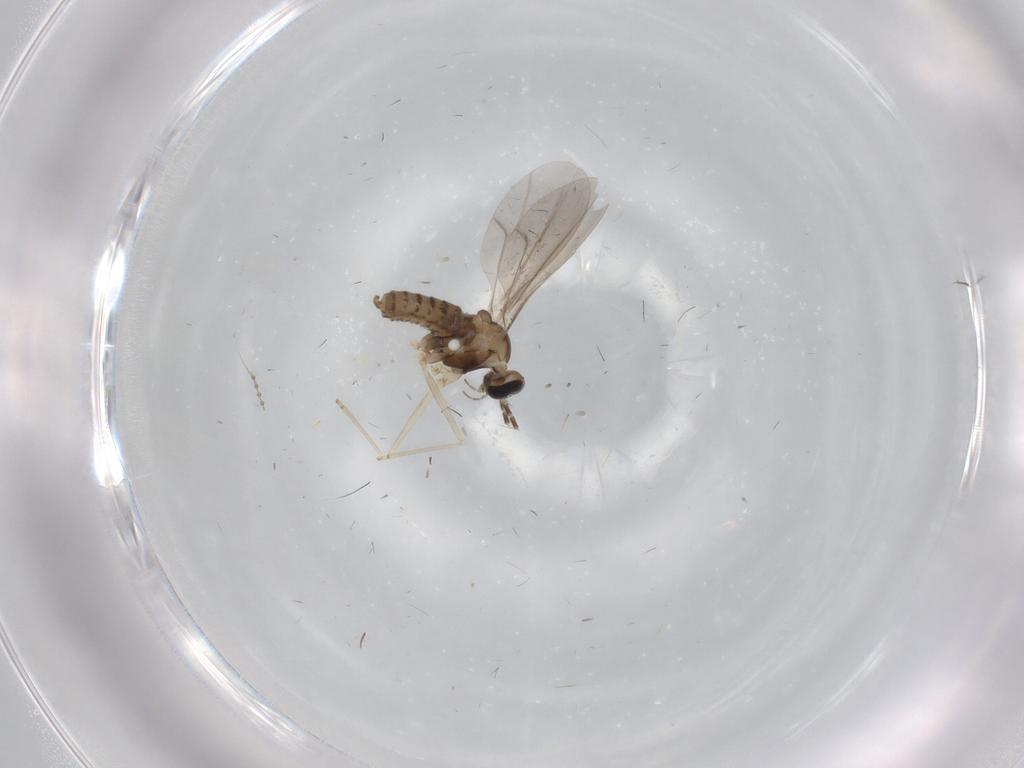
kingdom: Animalia
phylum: Arthropoda
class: Insecta
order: Diptera
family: Cecidomyiidae
